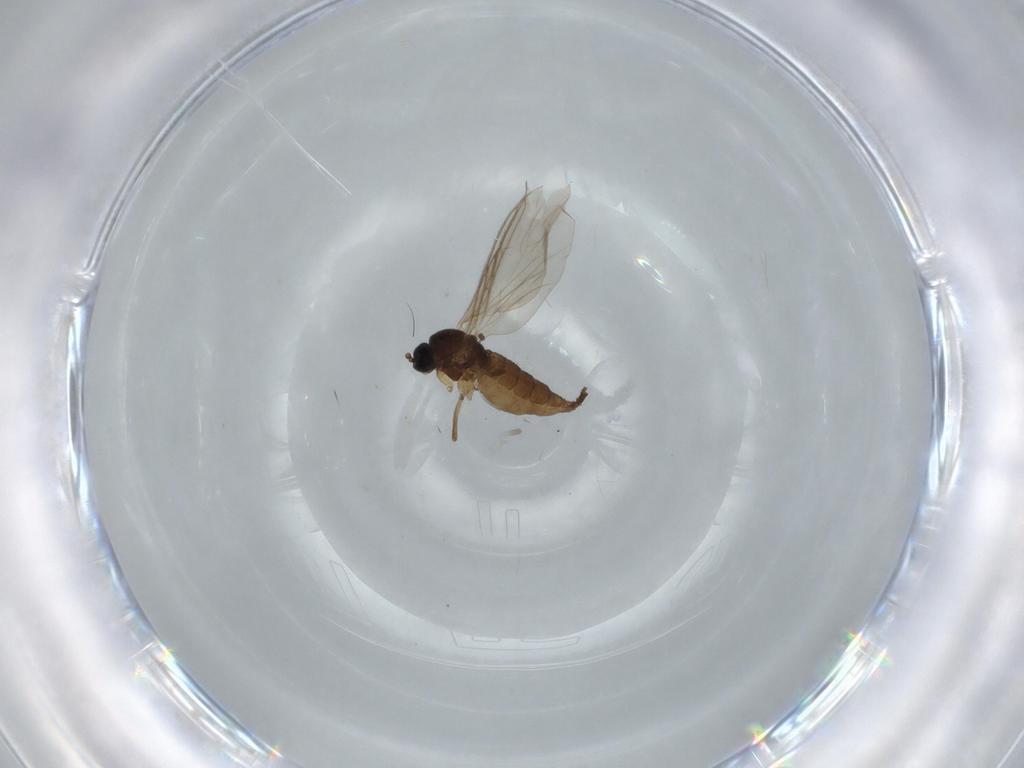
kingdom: Animalia
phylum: Arthropoda
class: Insecta
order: Diptera
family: Sciaridae
